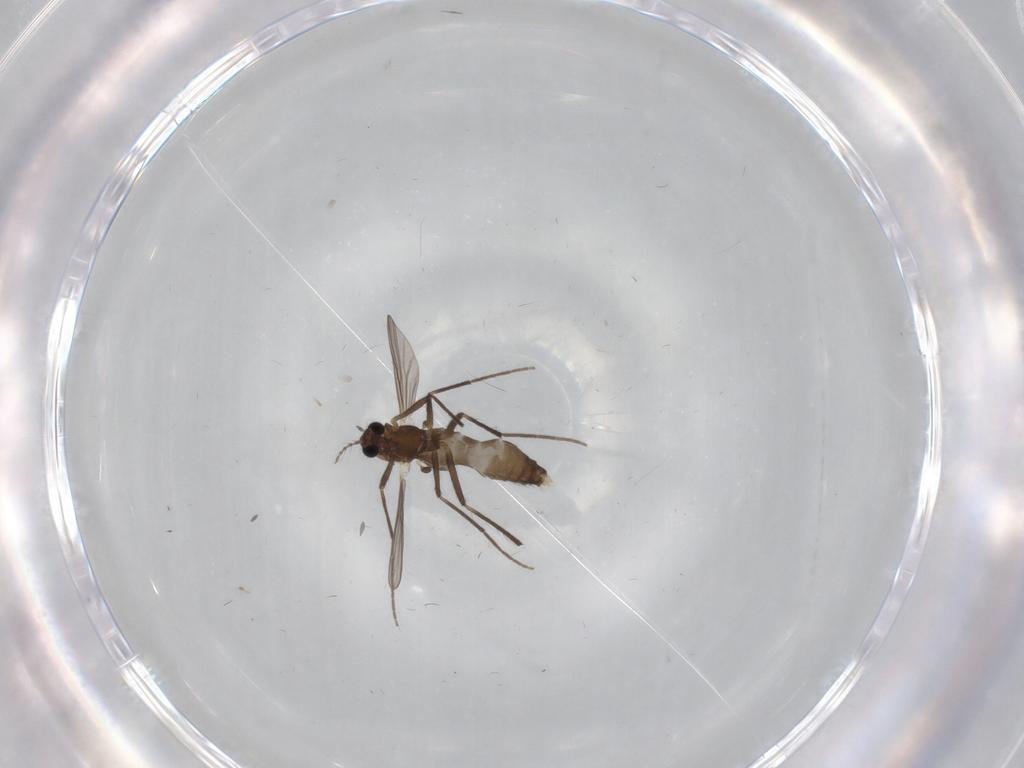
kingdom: Animalia
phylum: Arthropoda
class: Insecta
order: Diptera
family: Chironomidae
